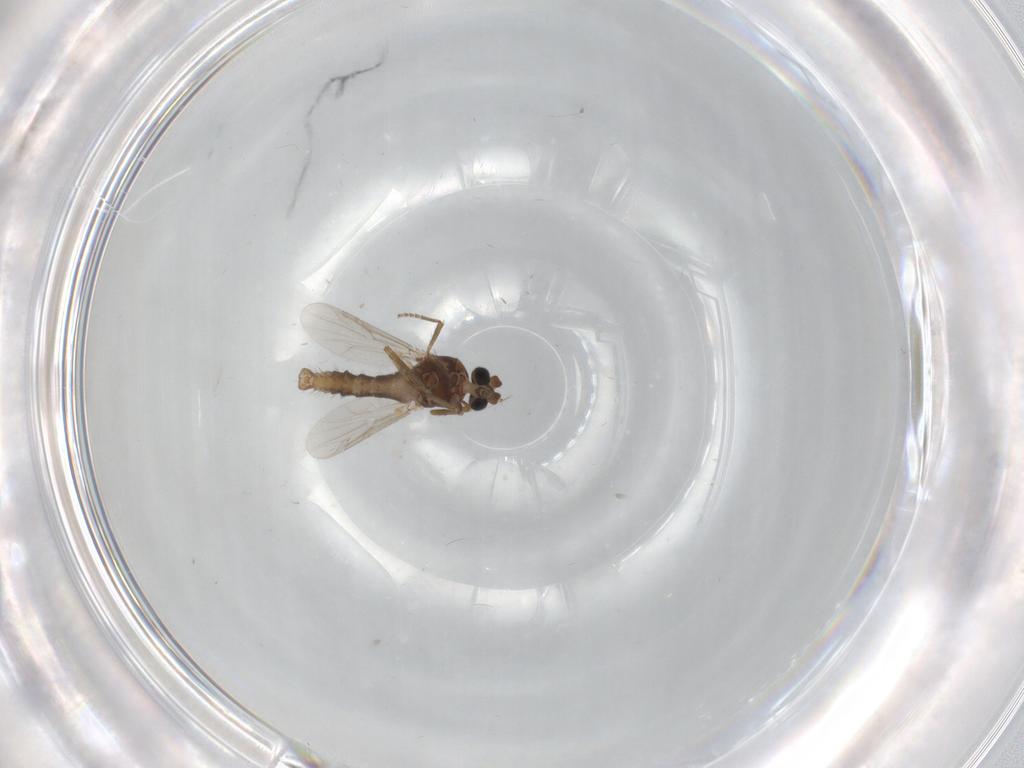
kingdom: Animalia
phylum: Arthropoda
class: Insecta
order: Diptera
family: Ceratopogonidae
